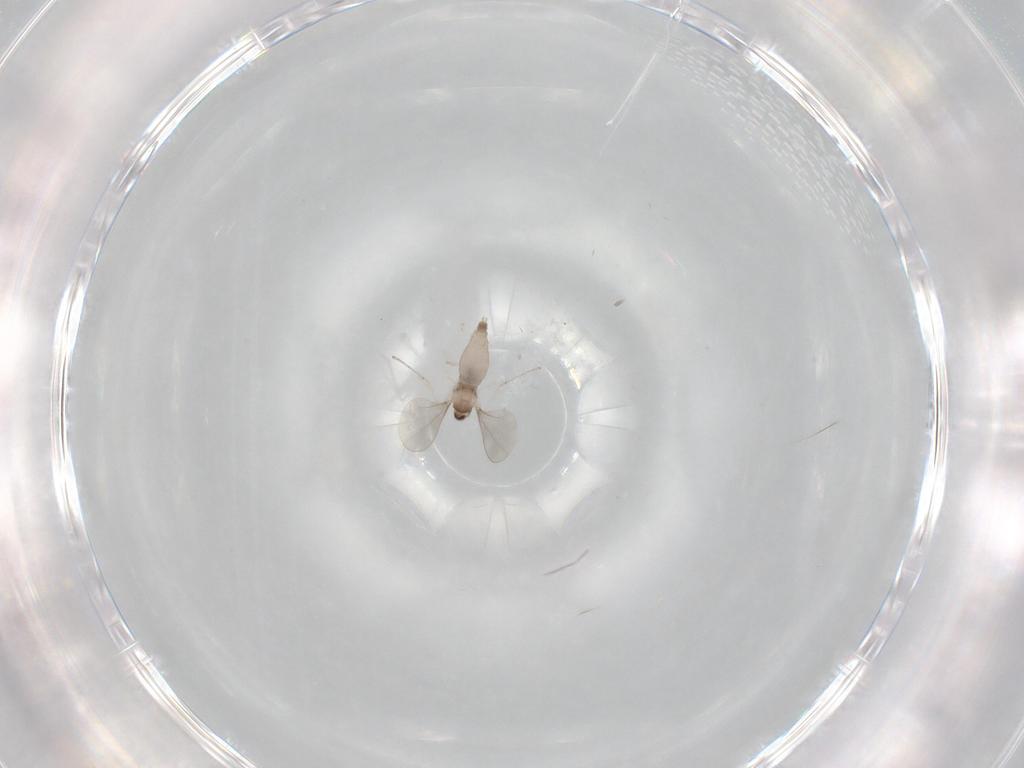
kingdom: Animalia
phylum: Arthropoda
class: Insecta
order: Diptera
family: Cecidomyiidae
